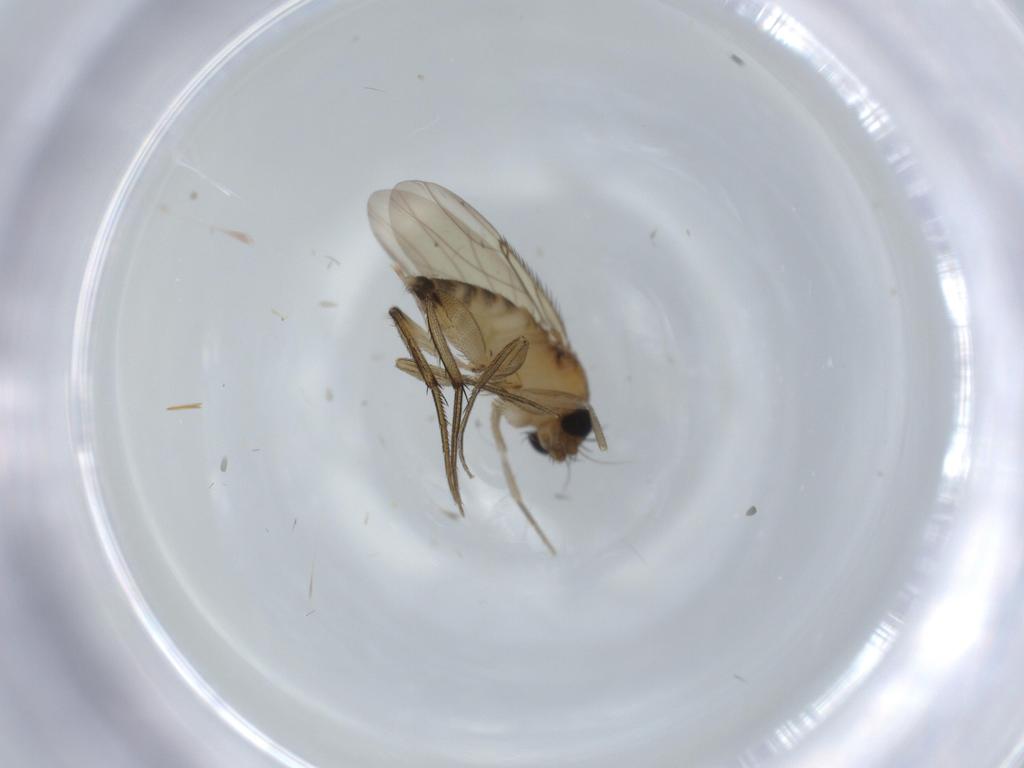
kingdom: Animalia
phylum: Arthropoda
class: Insecta
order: Diptera
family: Phoridae
